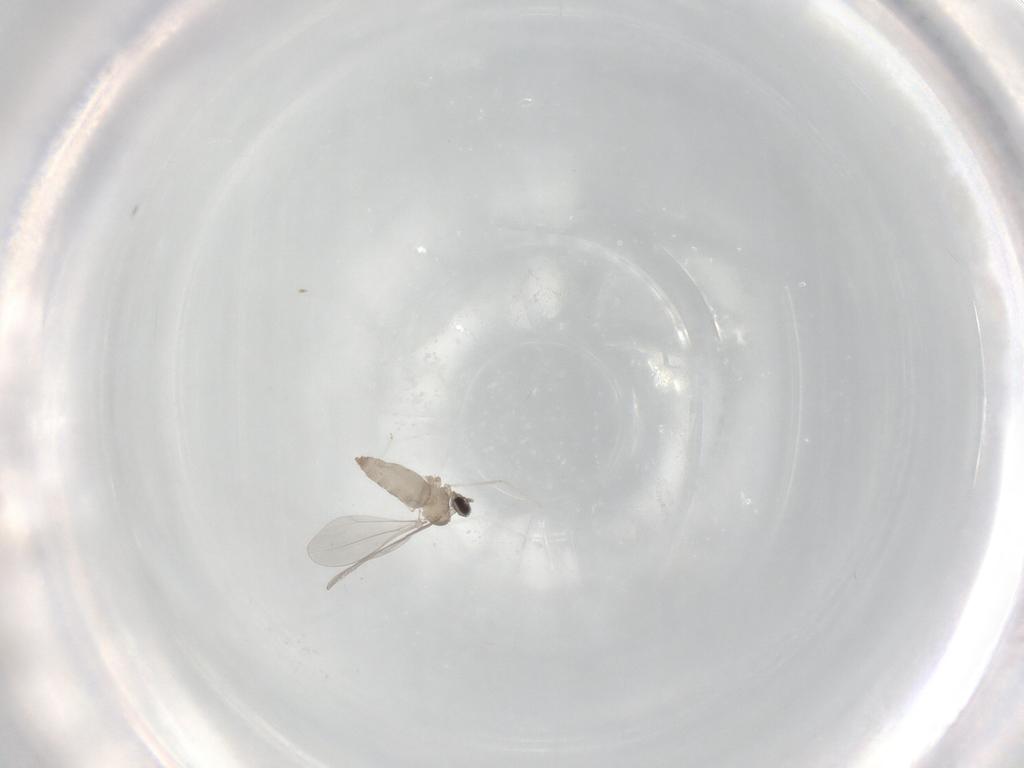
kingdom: Animalia
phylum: Arthropoda
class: Insecta
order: Diptera
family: Cecidomyiidae
